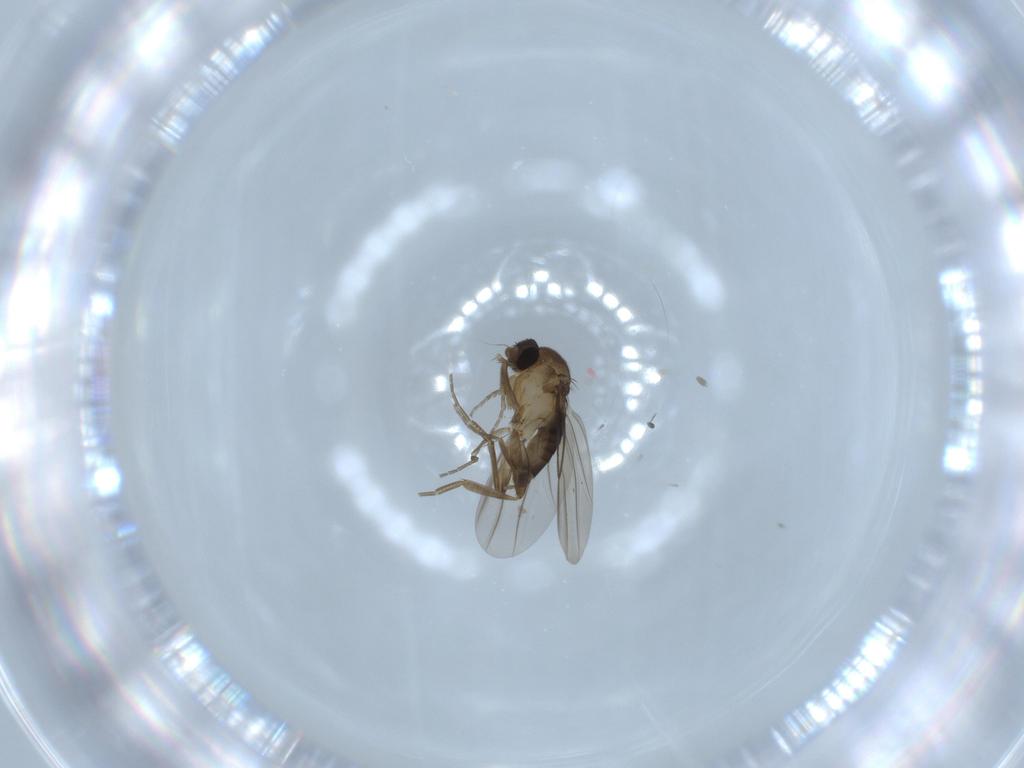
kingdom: Animalia
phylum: Arthropoda
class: Insecta
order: Diptera
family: Phoridae
